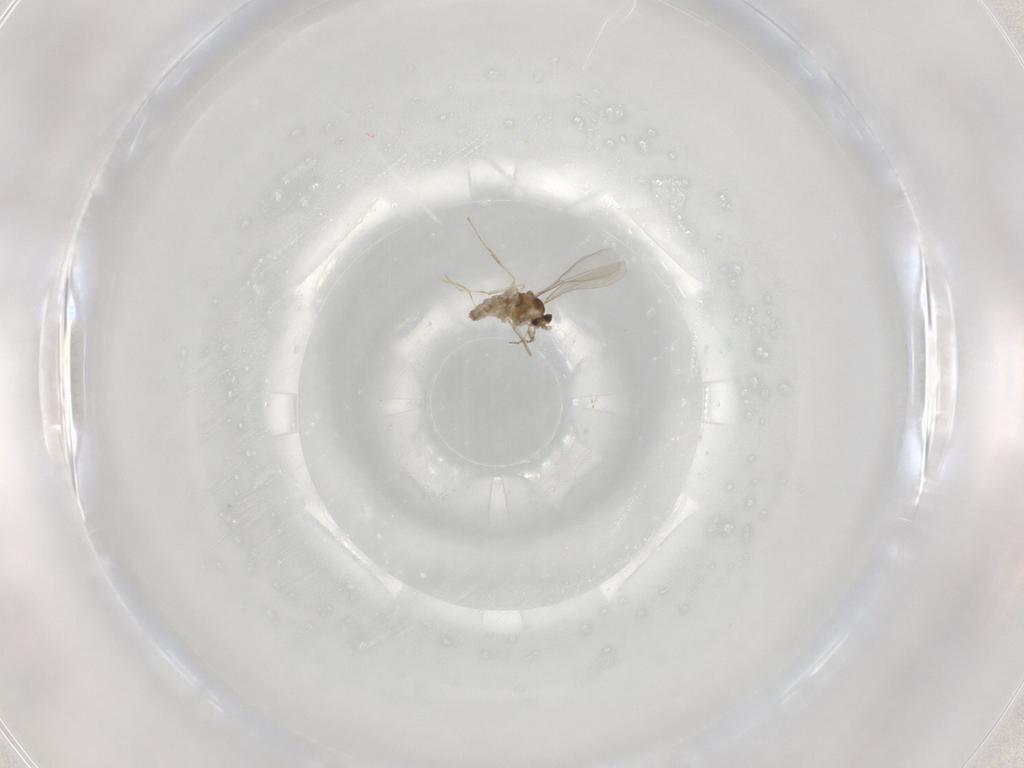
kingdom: Animalia
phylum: Arthropoda
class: Insecta
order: Diptera
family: Cecidomyiidae
